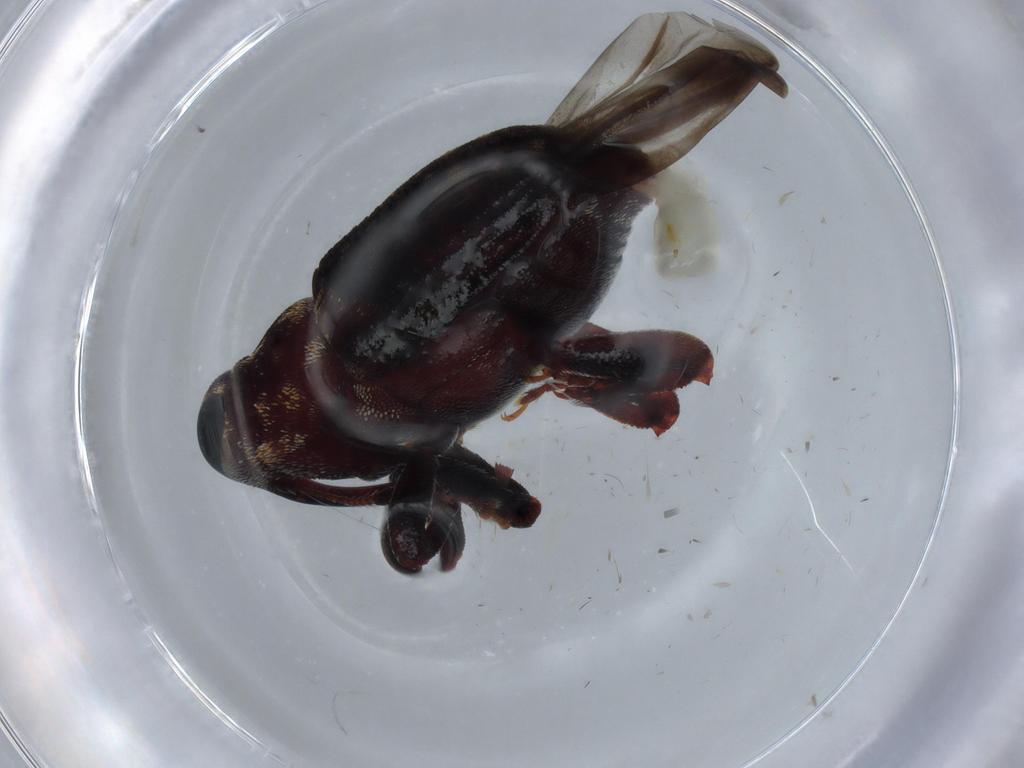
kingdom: Animalia
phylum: Arthropoda
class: Insecta
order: Coleoptera
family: Curculionidae
